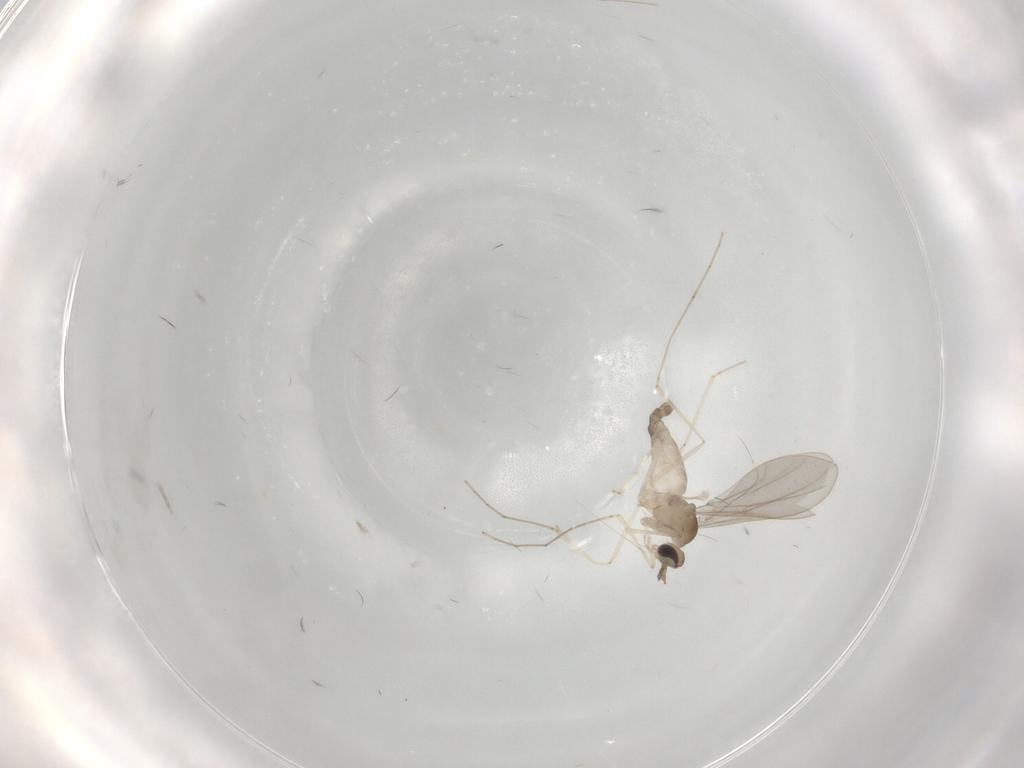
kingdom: Animalia
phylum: Arthropoda
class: Insecta
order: Diptera
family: Cecidomyiidae
